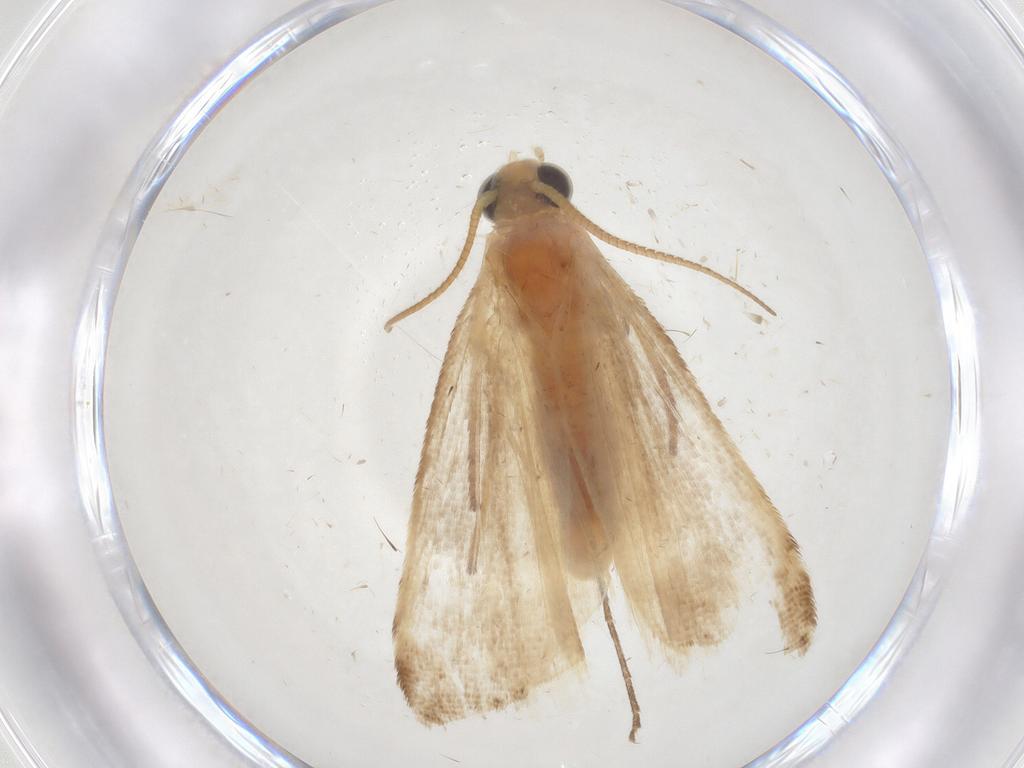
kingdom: Animalia
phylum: Arthropoda
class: Insecta
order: Lepidoptera
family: Pyralidae
